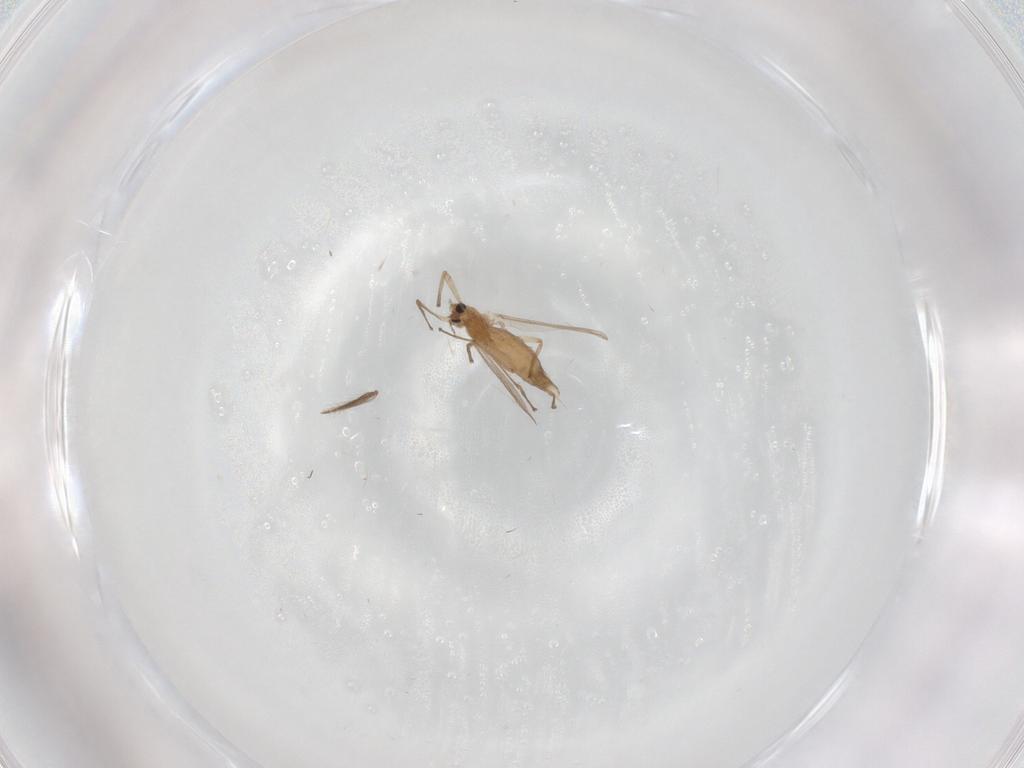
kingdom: Animalia
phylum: Arthropoda
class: Insecta
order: Diptera
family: Chironomidae
